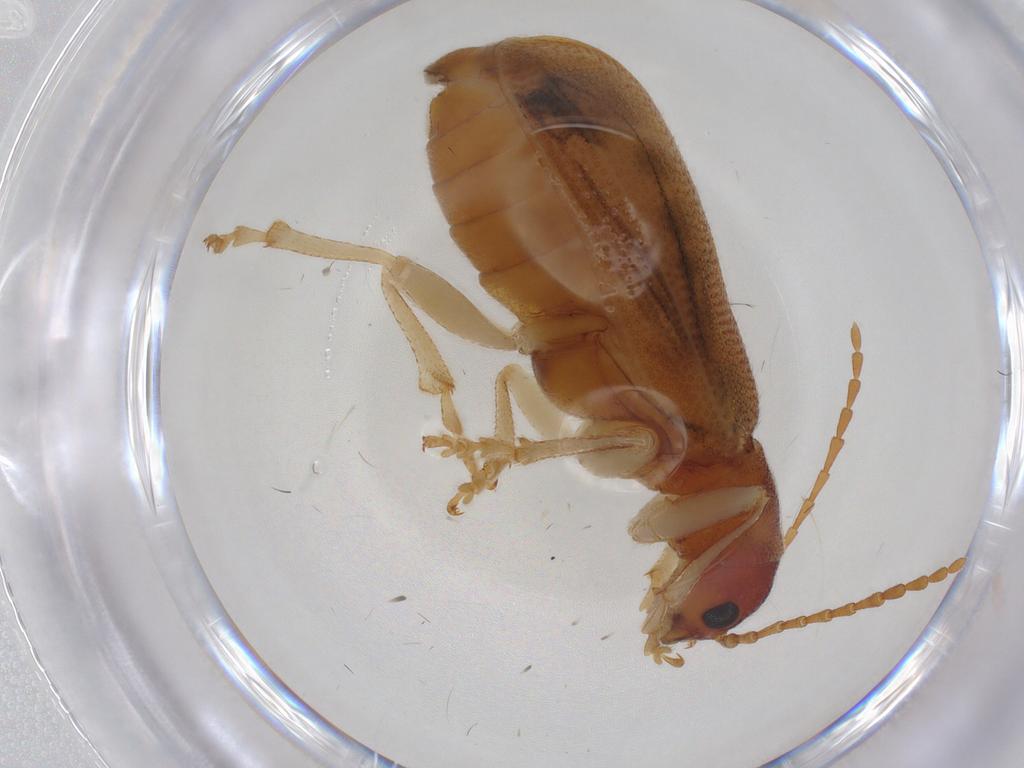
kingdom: Animalia
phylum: Arthropoda
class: Insecta
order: Coleoptera
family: Chrysomelidae
